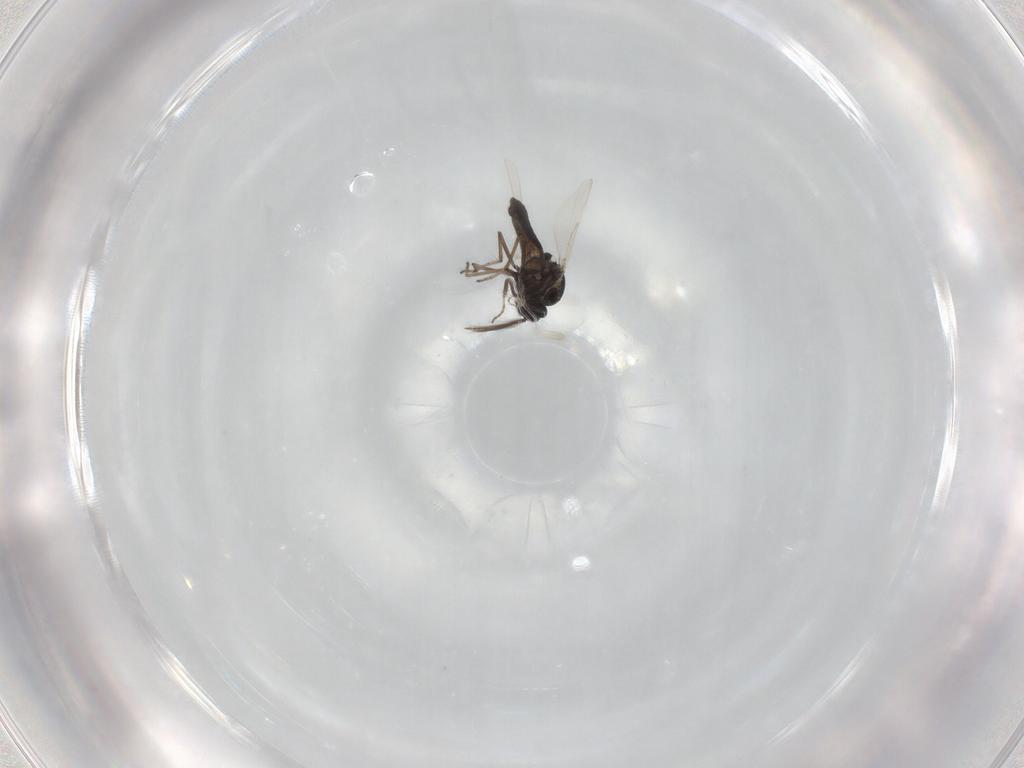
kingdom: Animalia
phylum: Arthropoda
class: Insecta
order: Diptera
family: Ceratopogonidae
